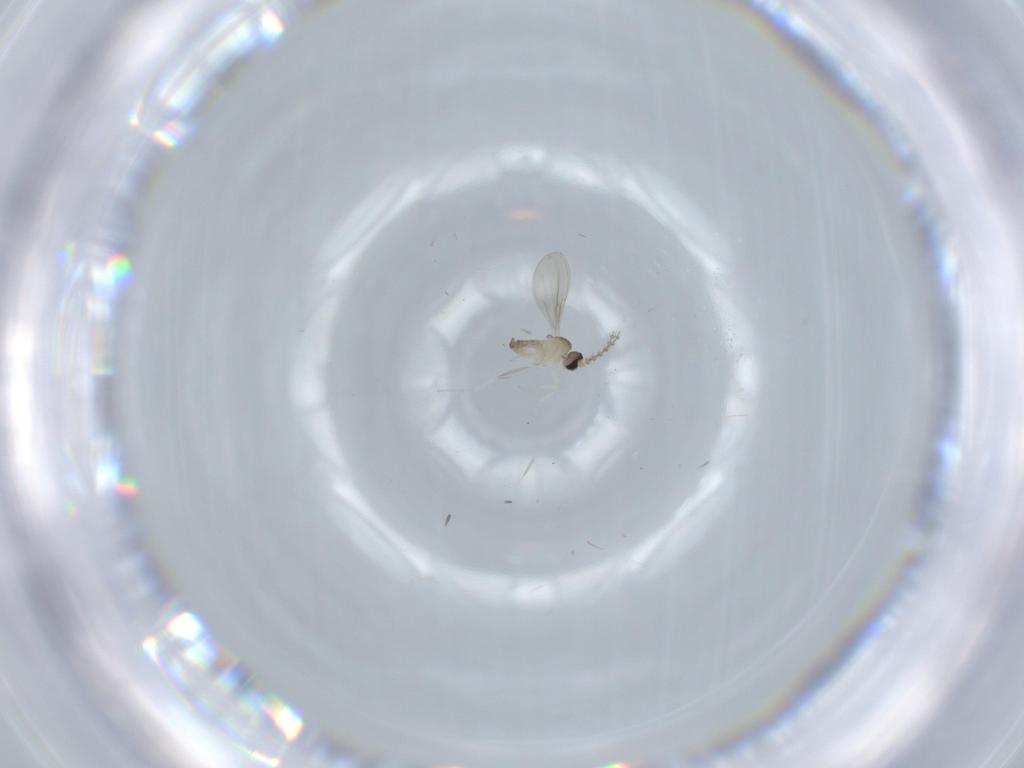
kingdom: Animalia
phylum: Arthropoda
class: Insecta
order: Diptera
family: Cecidomyiidae
